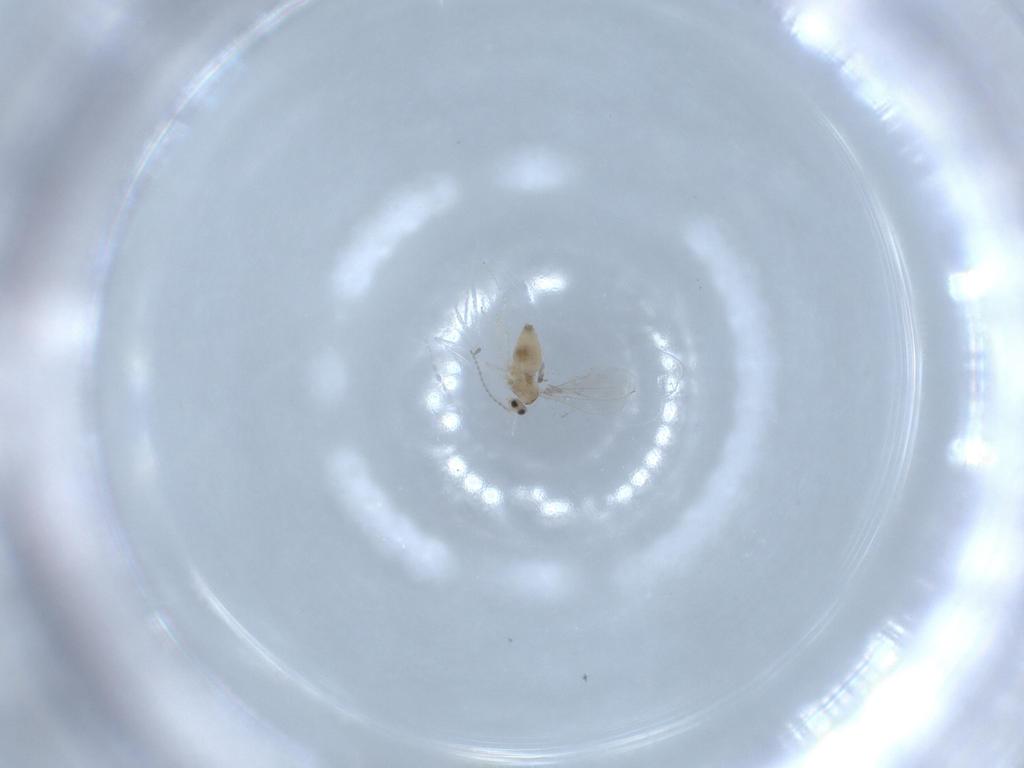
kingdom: Animalia
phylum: Arthropoda
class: Insecta
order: Diptera
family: Cecidomyiidae
